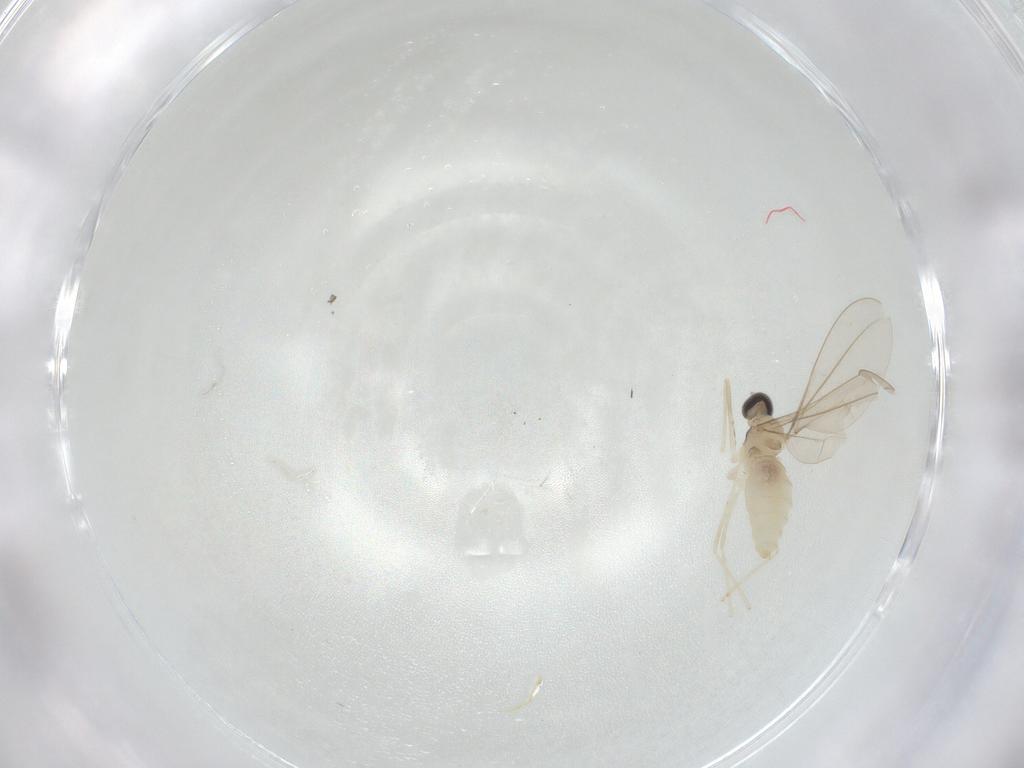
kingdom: Animalia
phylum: Arthropoda
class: Insecta
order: Diptera
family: Cecidomyiidae
